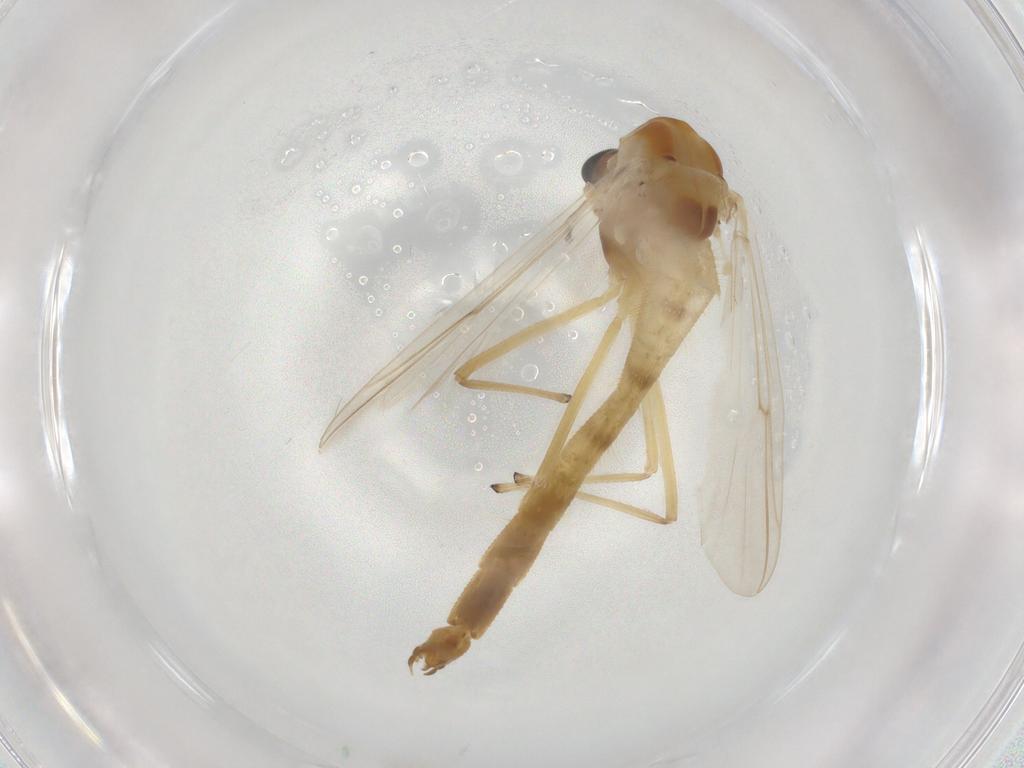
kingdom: Animalia
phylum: Arthropoda
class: Insecta
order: Diptera
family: Chironomidae
